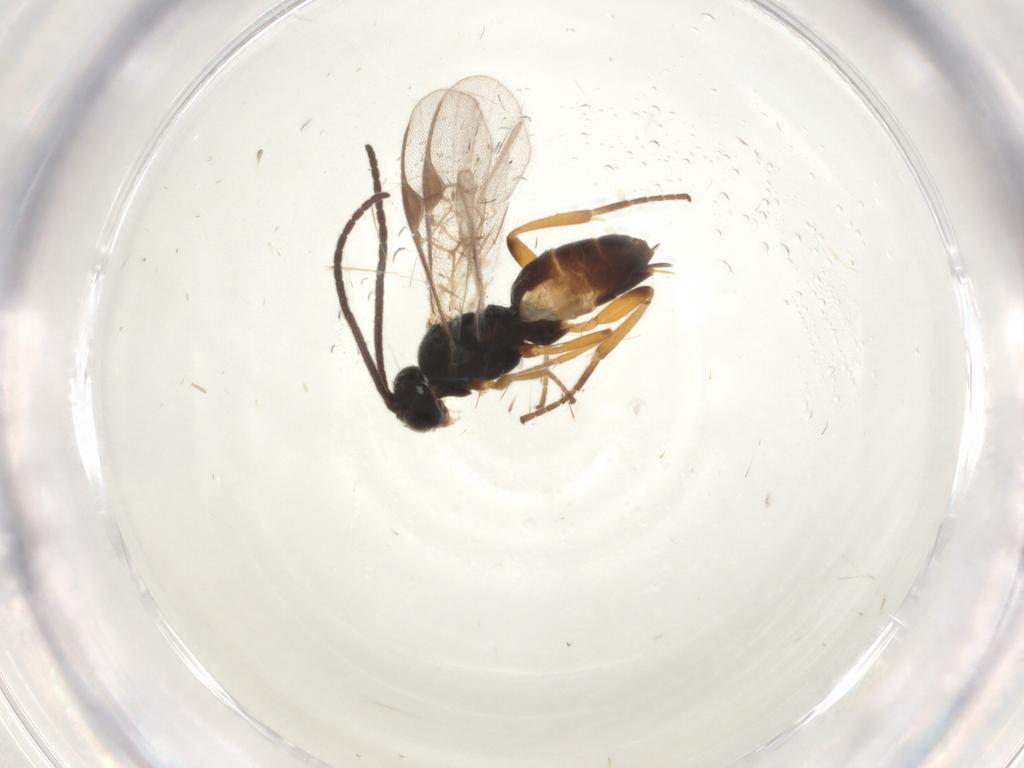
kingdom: Animalia
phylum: Arthropoda
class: Insecta
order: Hymenoptera
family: Braconidae
